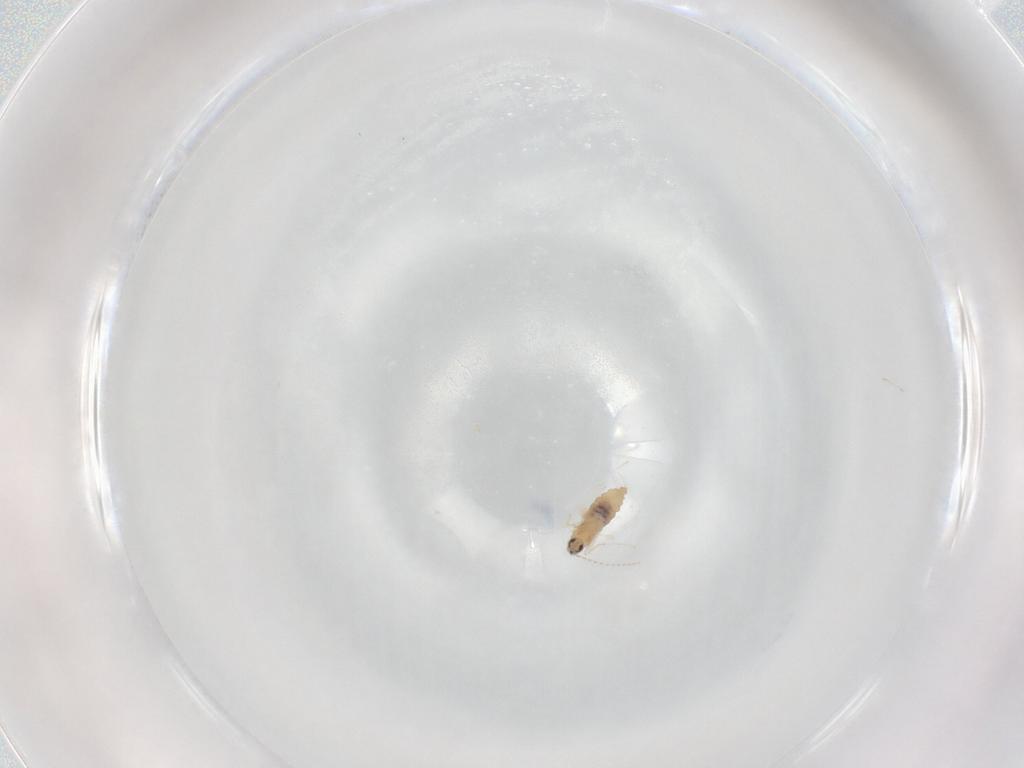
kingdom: Animalia
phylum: Arthropoda
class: Insecta
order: Diptera
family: Cecidomyiidae
